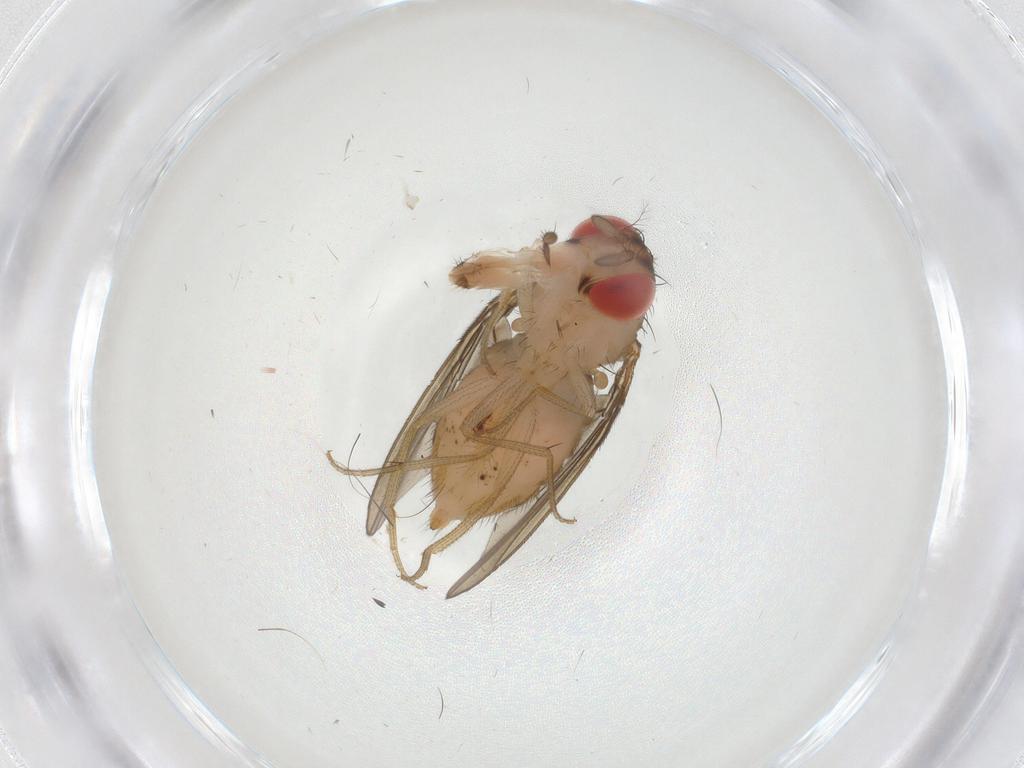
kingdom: Animalia
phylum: Arthropoda
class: Insecta
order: Diptera
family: Drosophilidae
